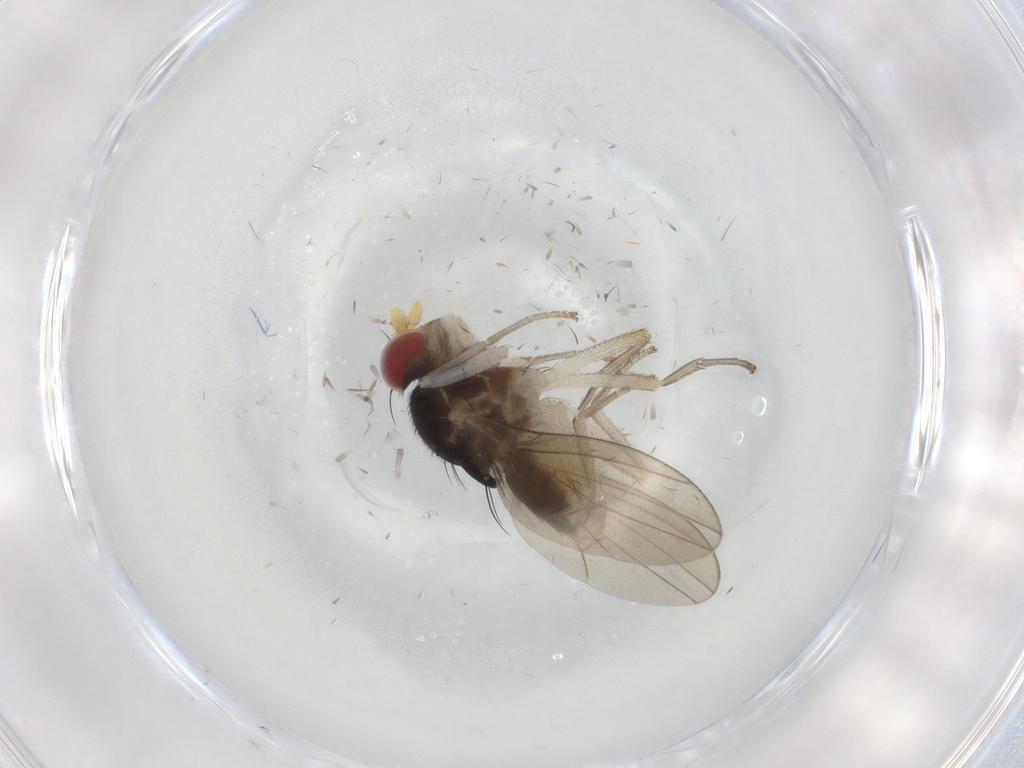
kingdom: Animalia
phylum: Arthropoda
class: Insecta
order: Diptera
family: Lauxaniidae
